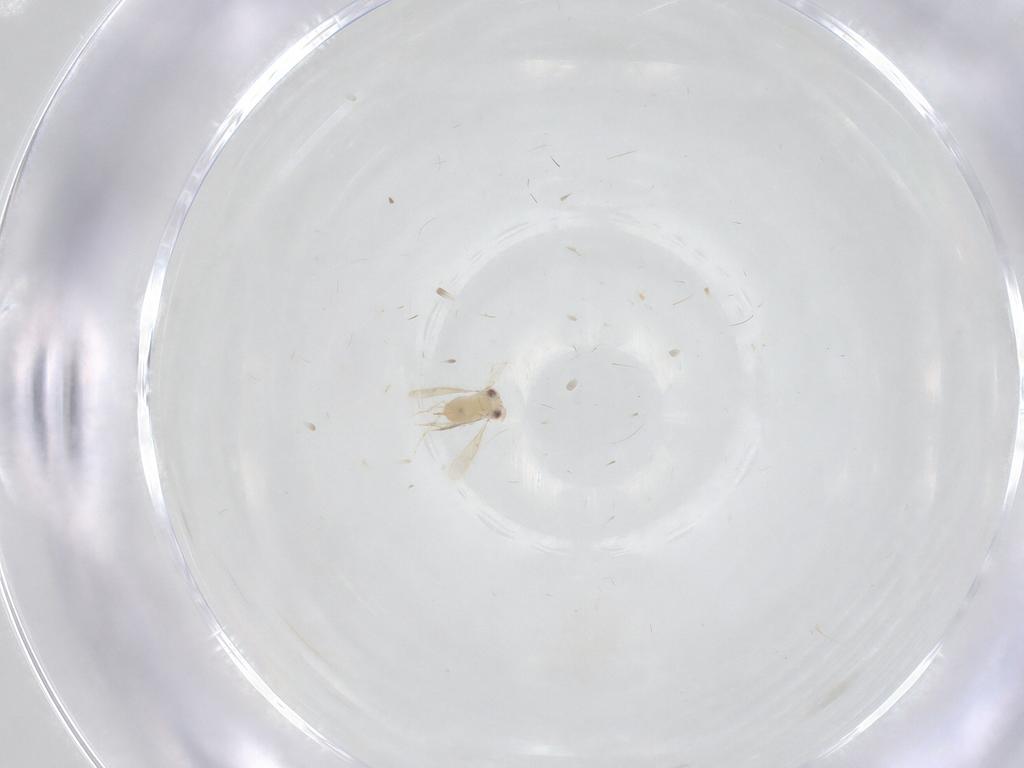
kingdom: Animalia
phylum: Arthropoda
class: Insecta
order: Hymenoptera
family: Aphelinidae
